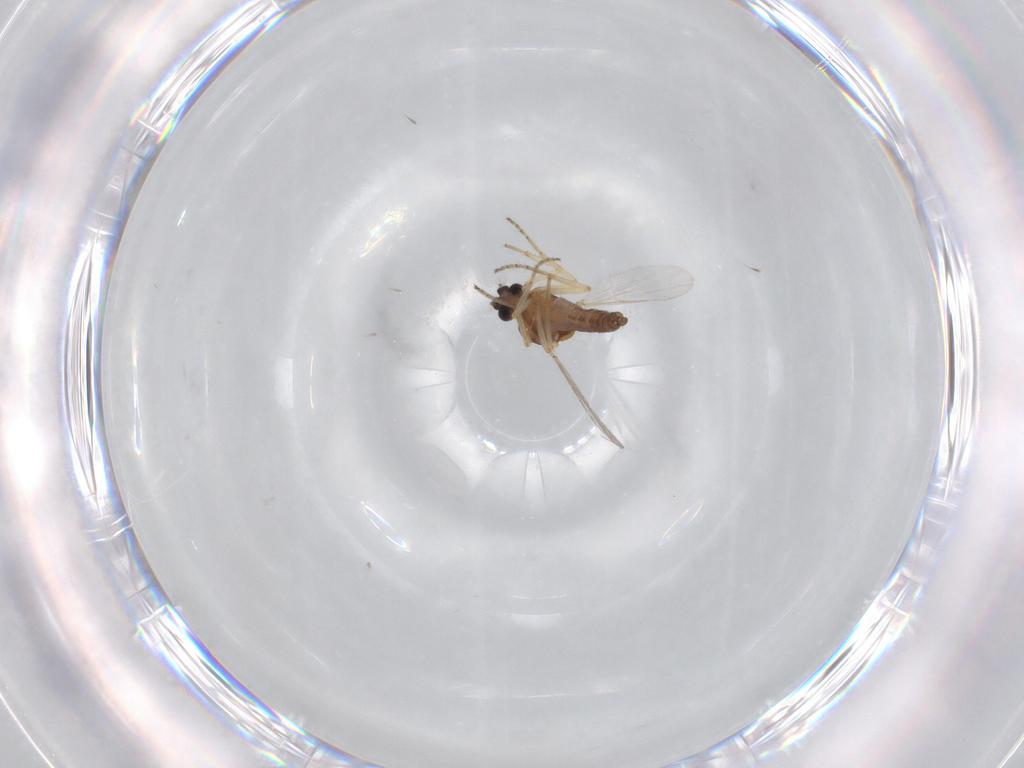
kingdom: Animalia
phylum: Arthropoda
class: Insecta
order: Diptera
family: Ceratopogonidae
